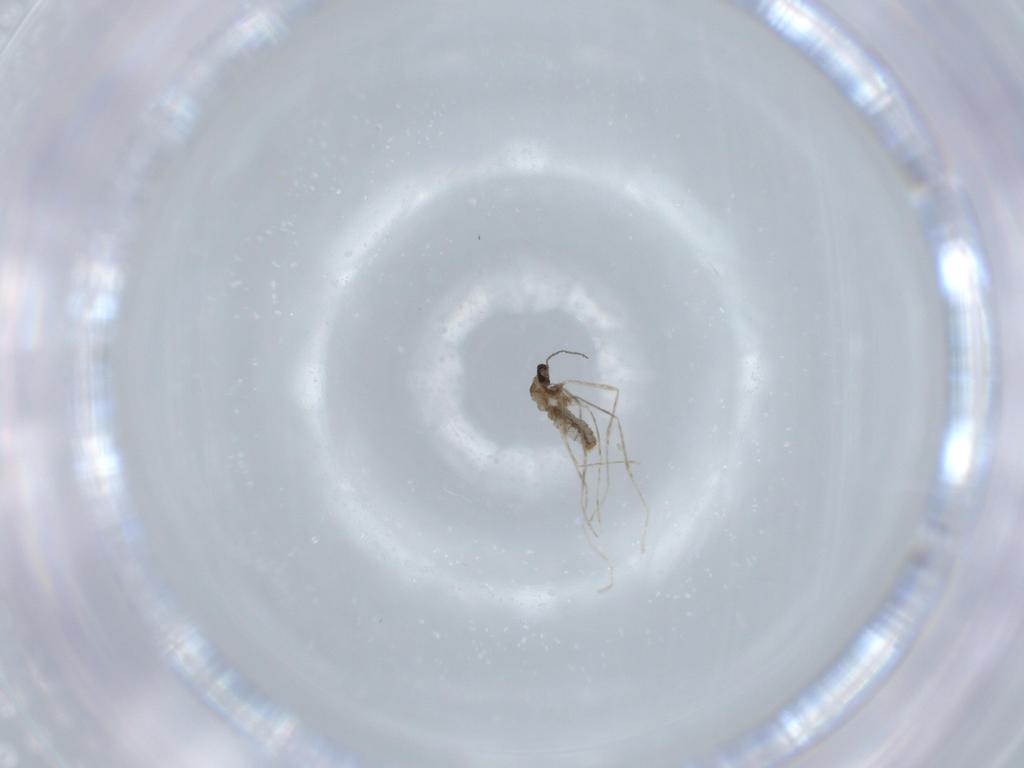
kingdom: Animalia
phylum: Arthropoda
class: Insecta
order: Diptera
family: Cecidomyiidae
